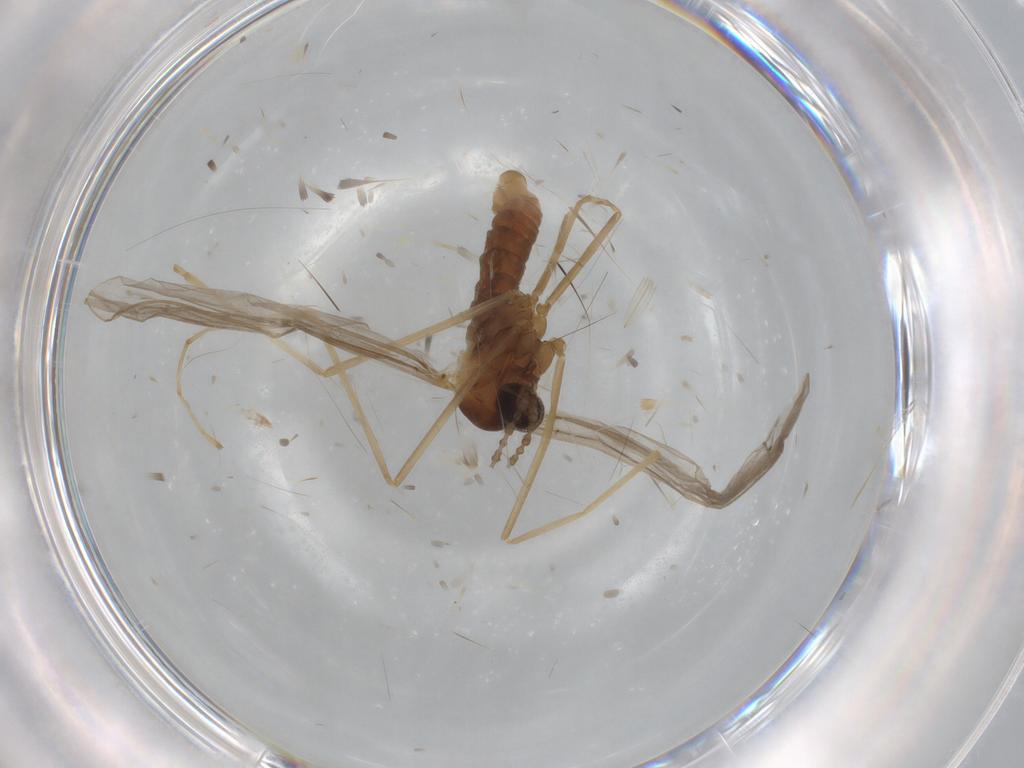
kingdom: Animalia
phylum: Arthropoda
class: Insecta
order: Diptera
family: Cecidomyiidae
